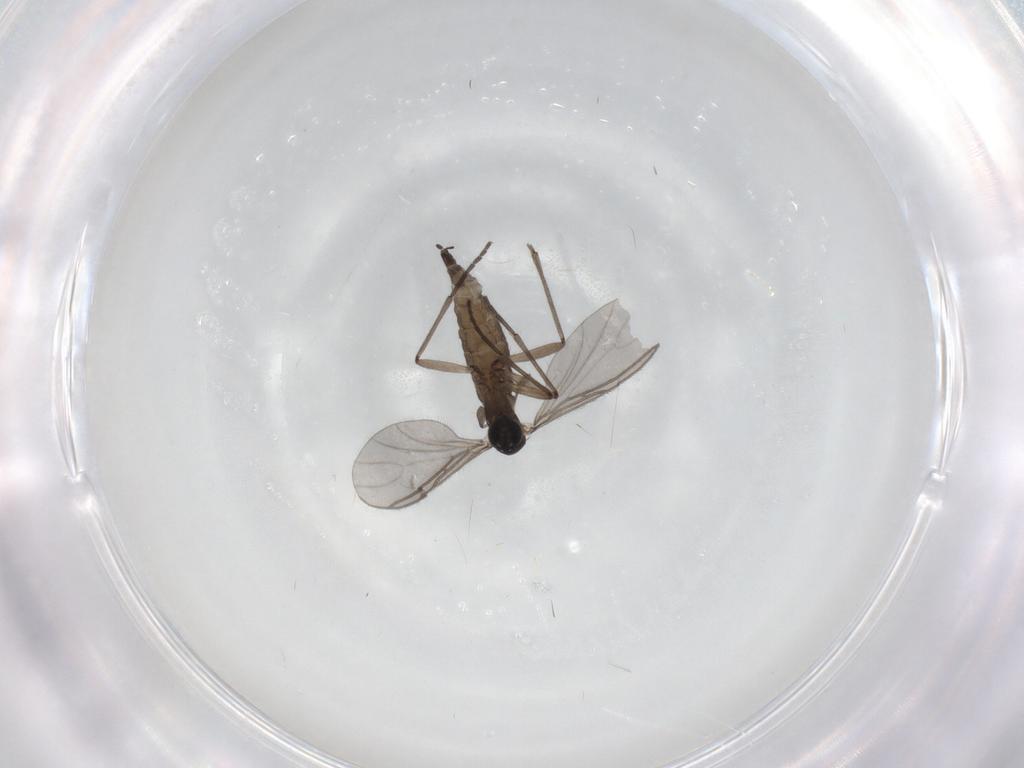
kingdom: Animalia
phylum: Arthropoda
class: Insecta
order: Diptera
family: Sciaridae
